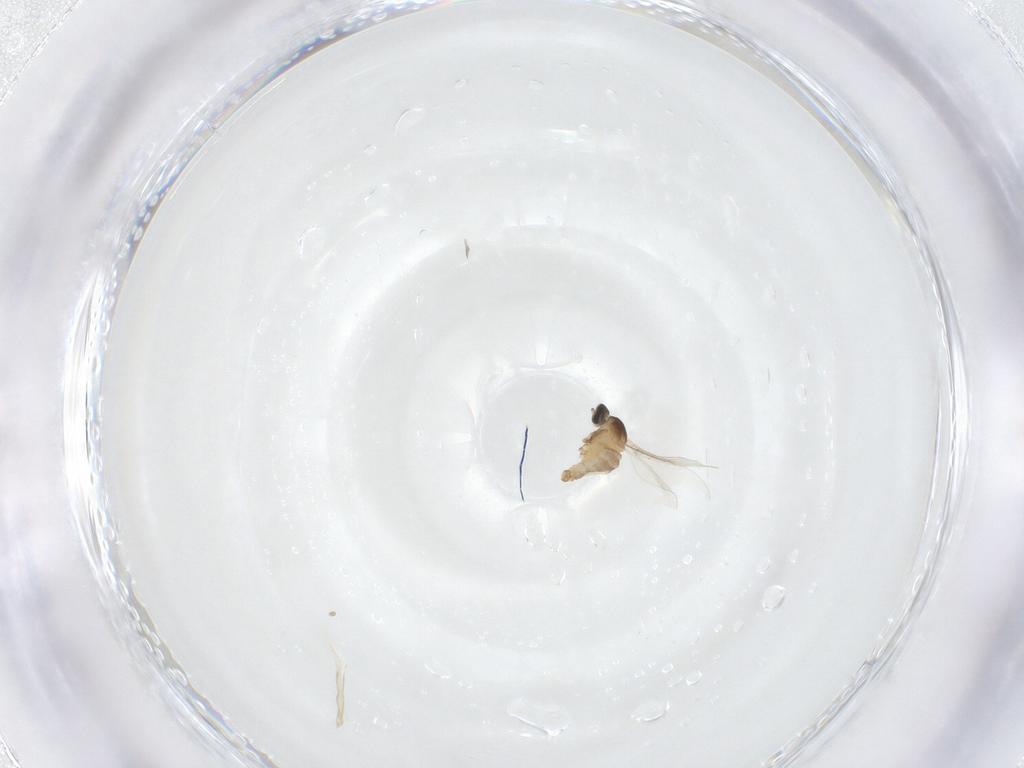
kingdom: Animalia
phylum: Arthropoda
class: Insecta
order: Diptera
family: Cecidomyiidae
